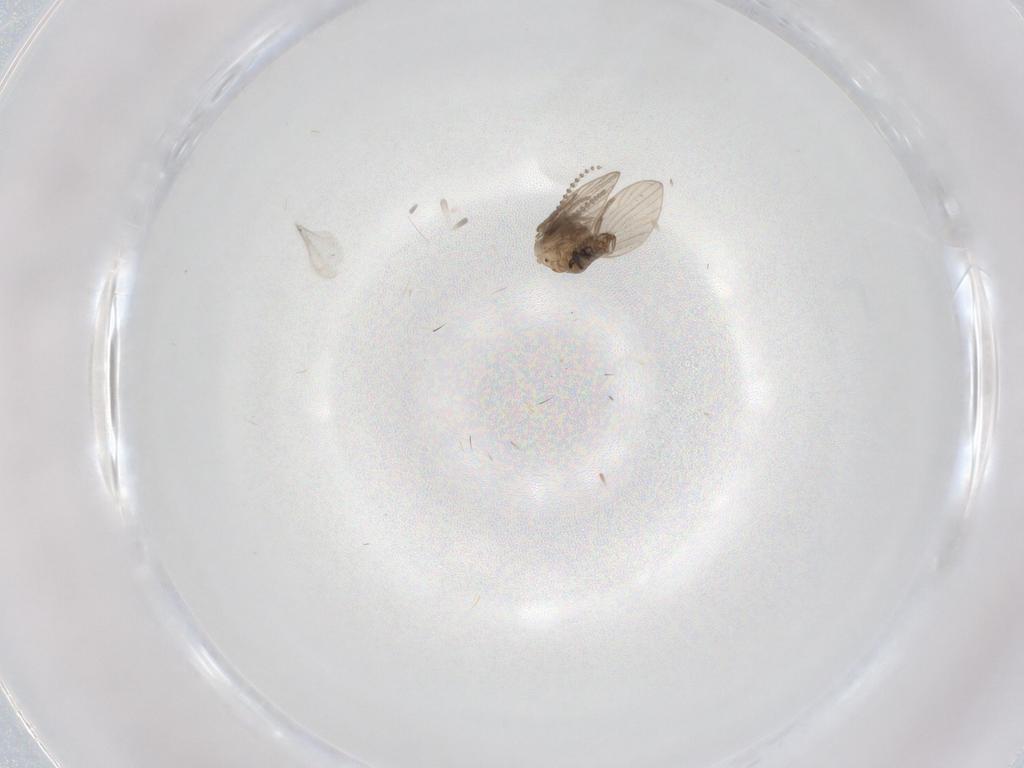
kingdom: Animalia
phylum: Arthropoda
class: Insecta
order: Diptera
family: Psychodidae
